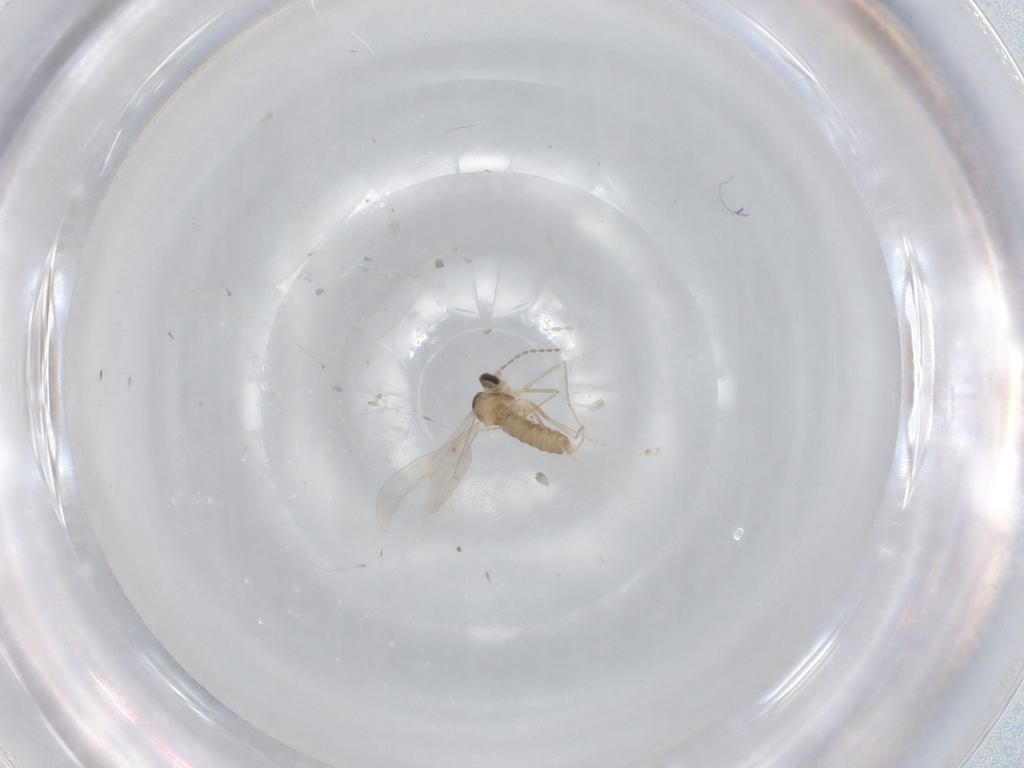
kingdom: Animalia
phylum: Arthropoda
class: Insecta
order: Diptera
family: Cecidomyiidae
